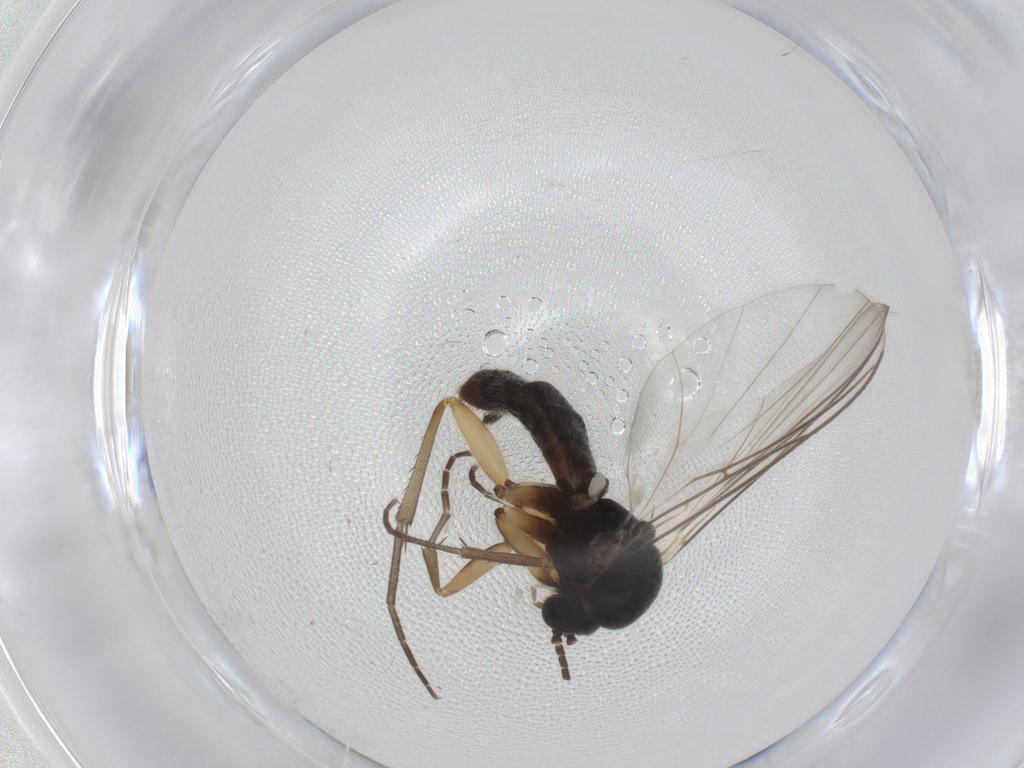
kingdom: Animalia
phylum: Arthropoda
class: Insecta
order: Diptera
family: Mycetophilidae
